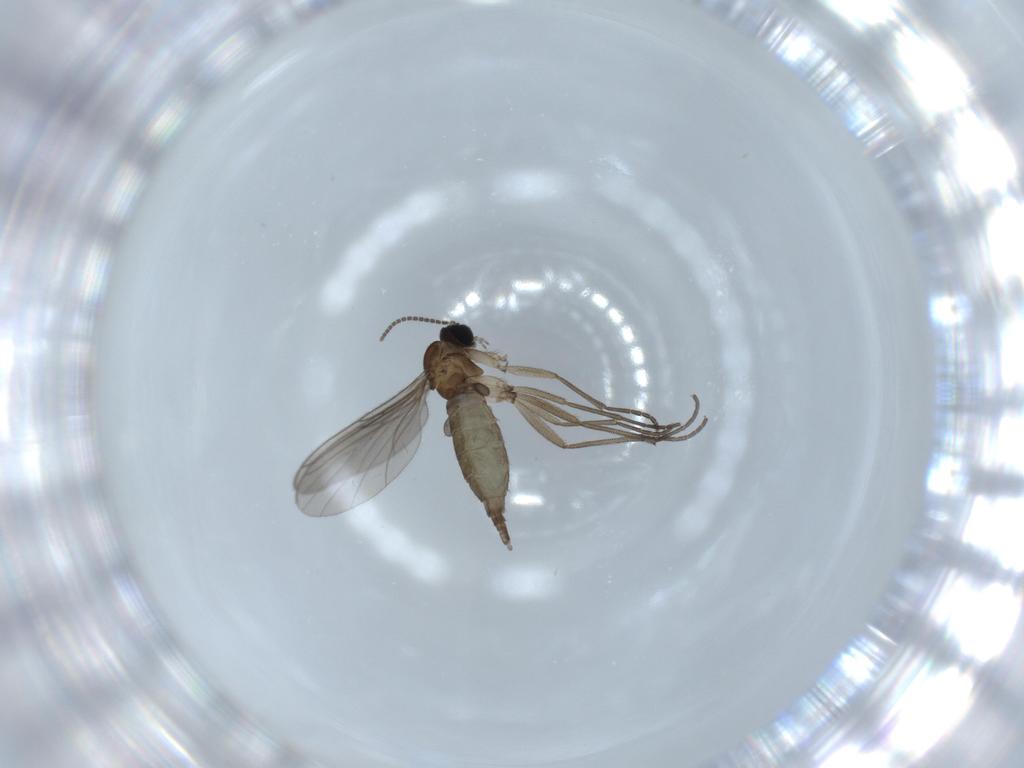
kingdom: Animalia
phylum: Arthropoda
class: Insecta
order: Diptera
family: Sciaridae
